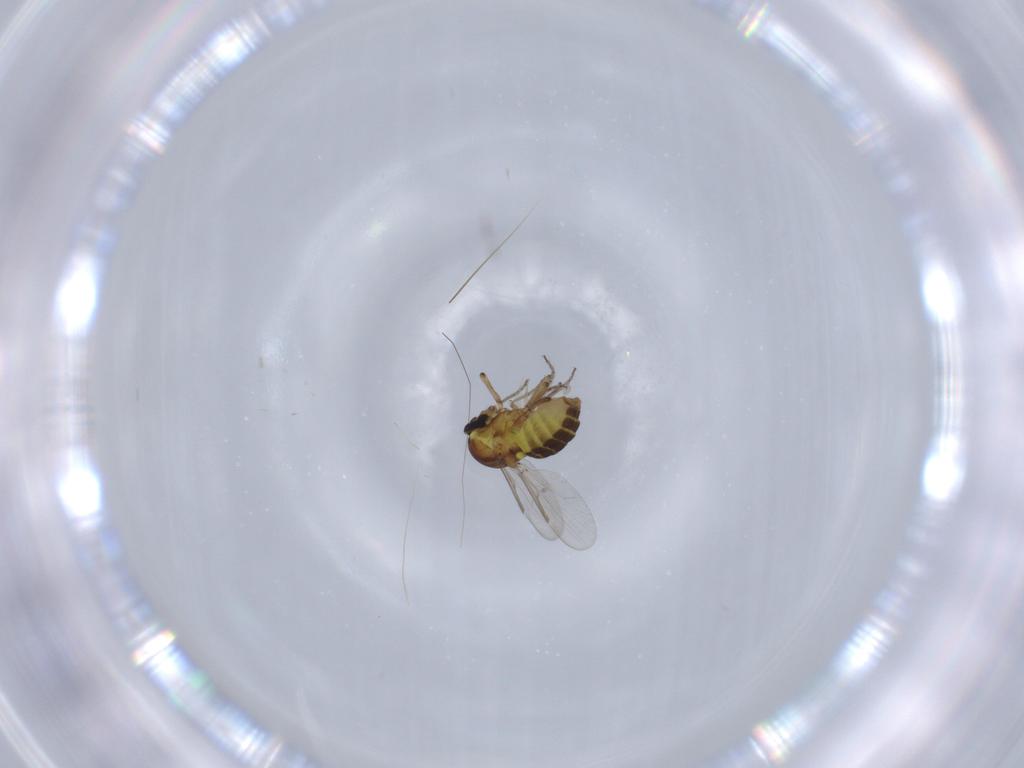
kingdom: Animalia
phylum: Arthropoda
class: Insecta
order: Diptera
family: Ceratopogonidae
